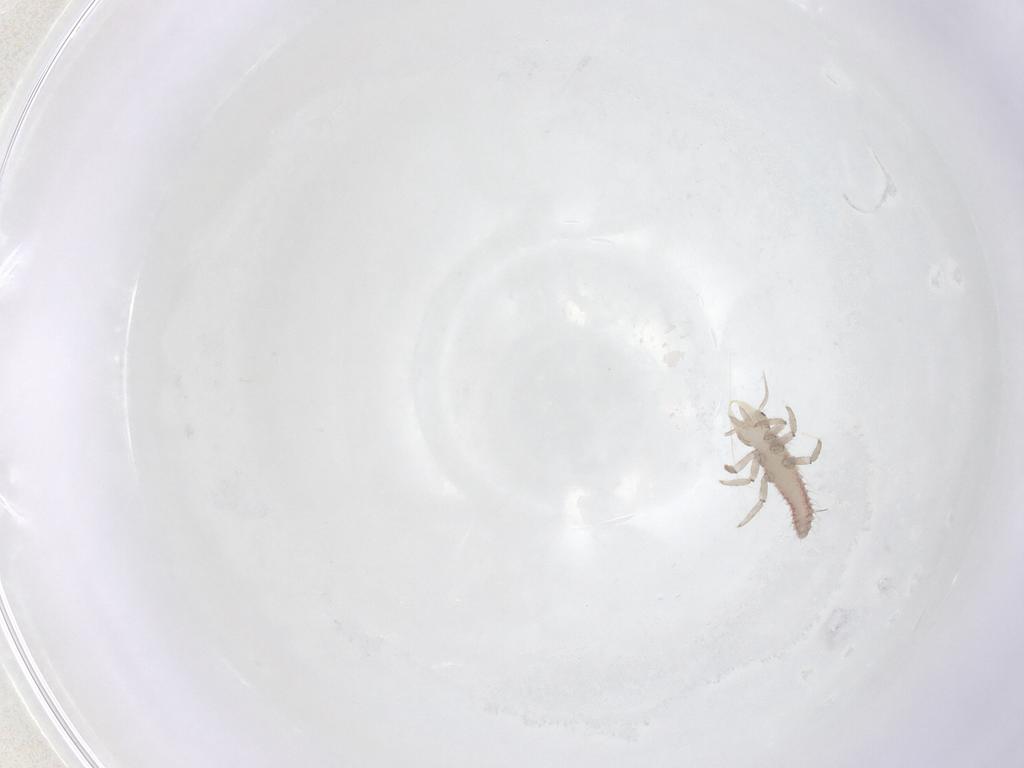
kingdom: Animalia
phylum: Arthropoda
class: Insecta
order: Neuroptera
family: Hemerobiidae
